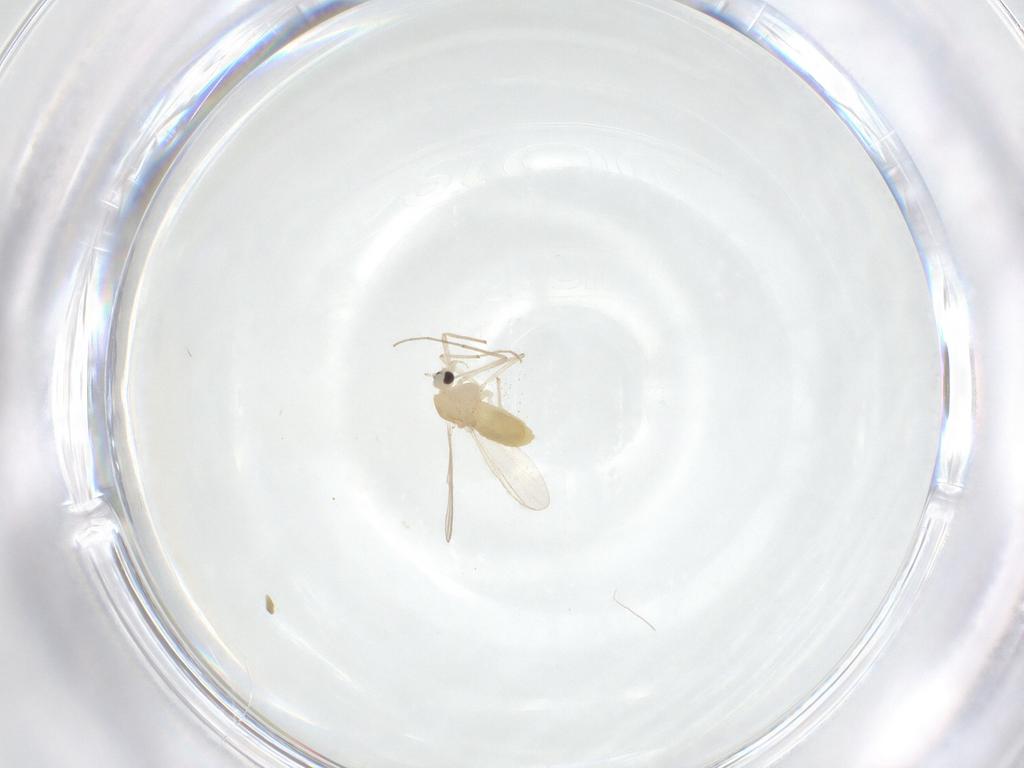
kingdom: Animalia
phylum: Arthropoda
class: Insecta
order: Diptera
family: Chironomidae
